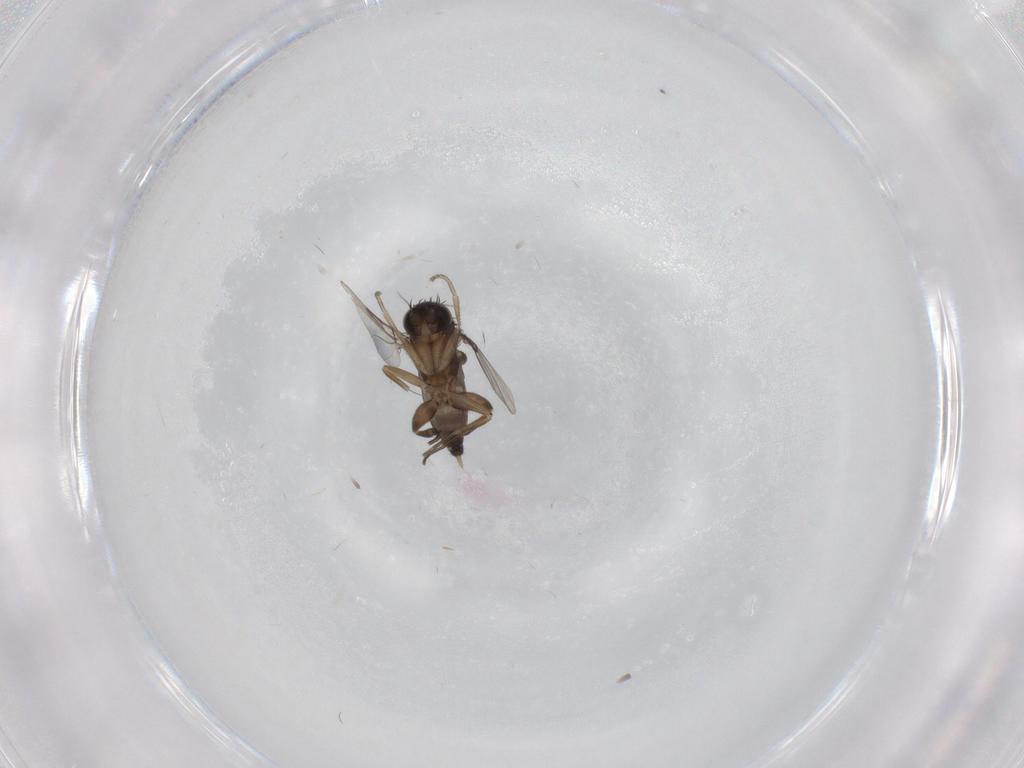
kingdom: Animalia
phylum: Arthropoda
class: Insecta
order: Diptera
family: Phoridae
